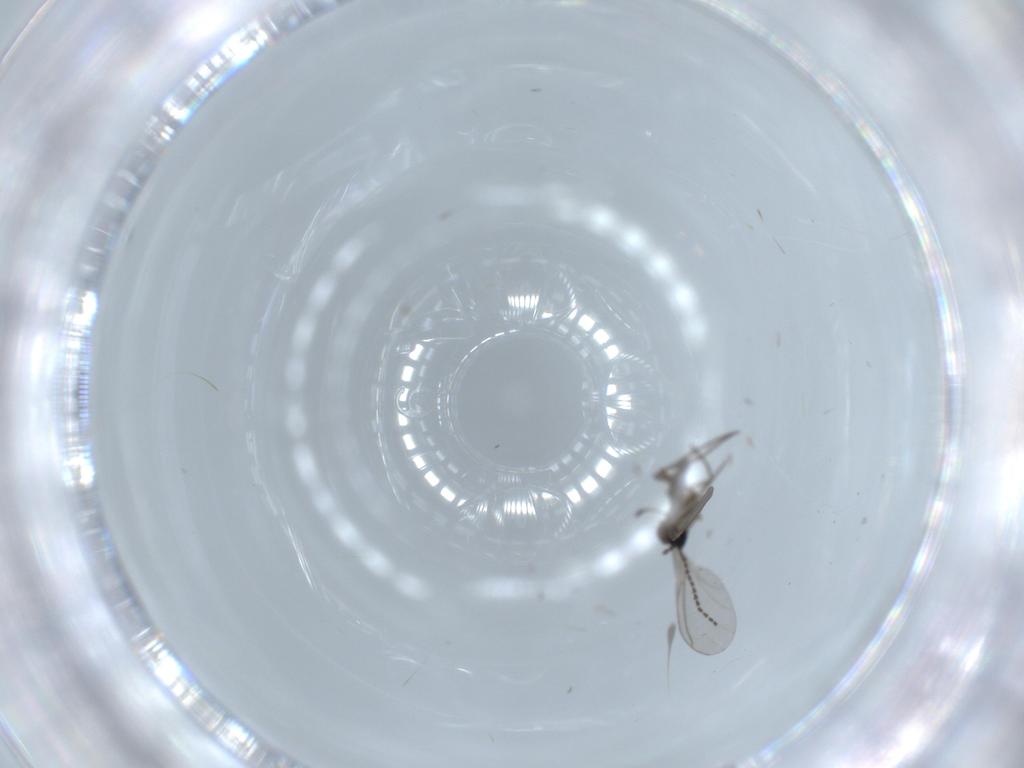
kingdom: Animalia
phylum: Arthropoda
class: Insecta
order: Diptera
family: Sciaridae
